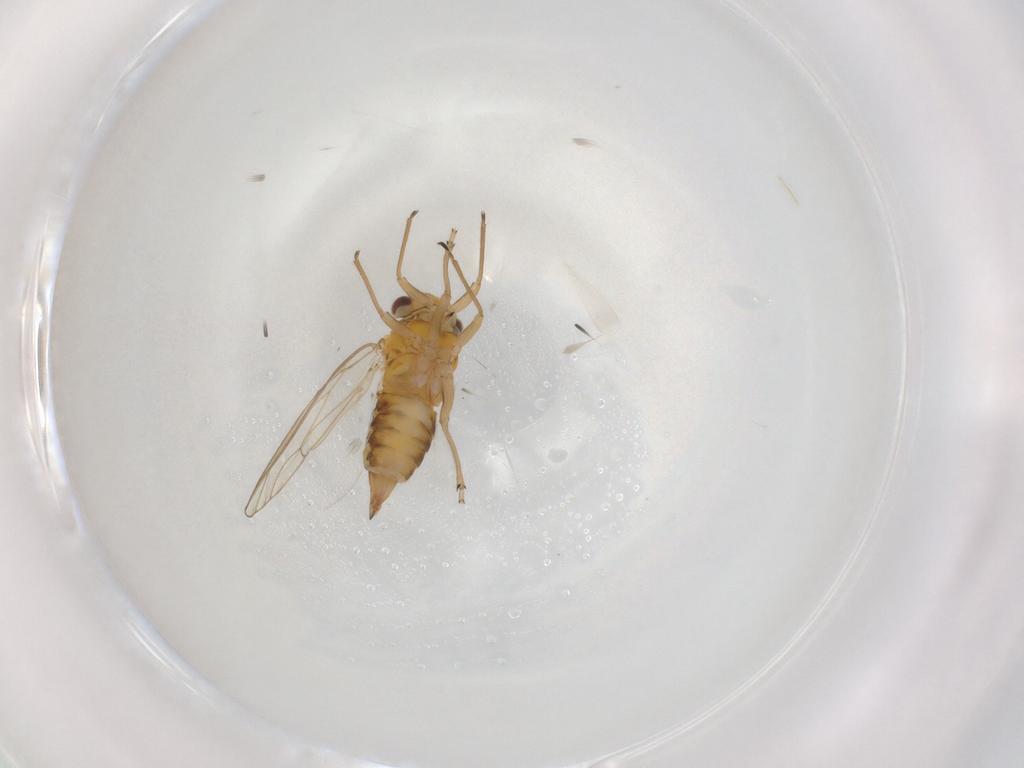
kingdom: Animalia
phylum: Arthropoda
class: Insecta
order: Hemiptera
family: Psyllidae
